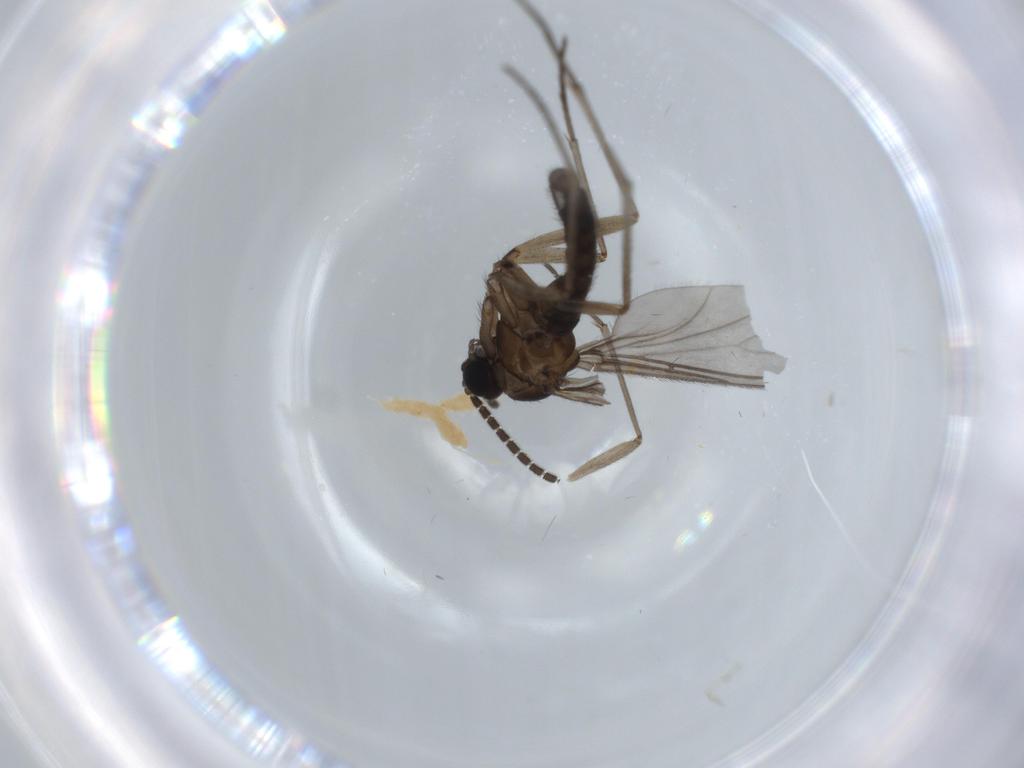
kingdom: Animalia
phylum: Arthropoda
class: Insecta
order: Diptera
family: Sciaridae
